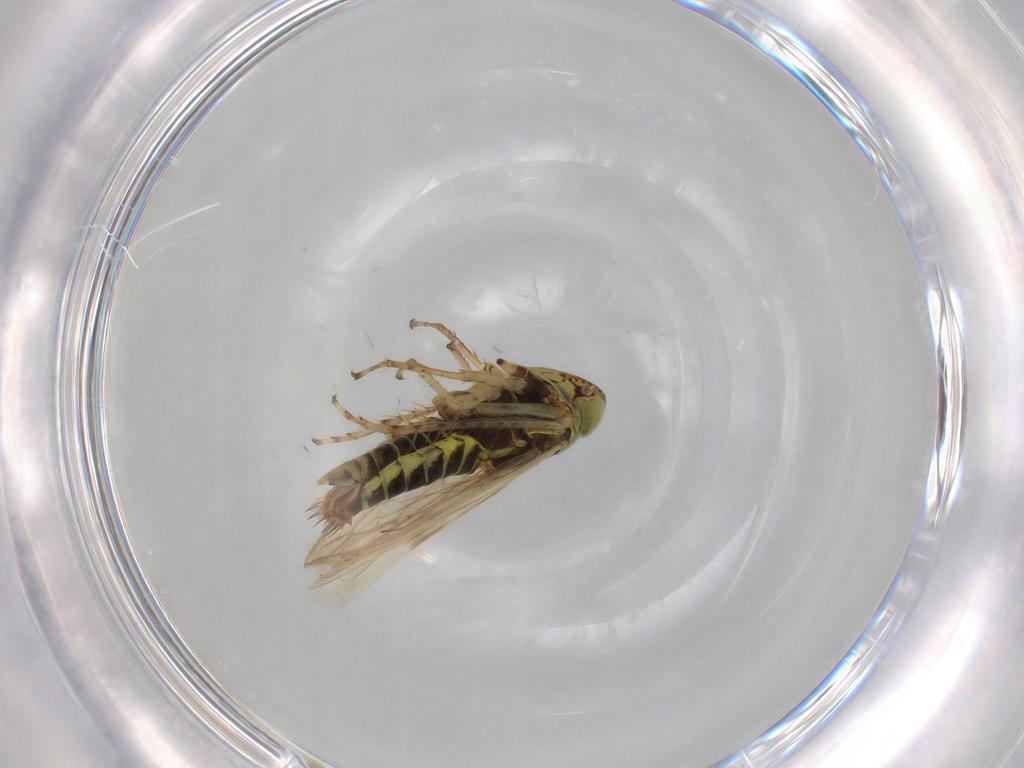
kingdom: Animalia
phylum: Arthropoda
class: Insecta
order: Hemiptera
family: Cicadellidae
